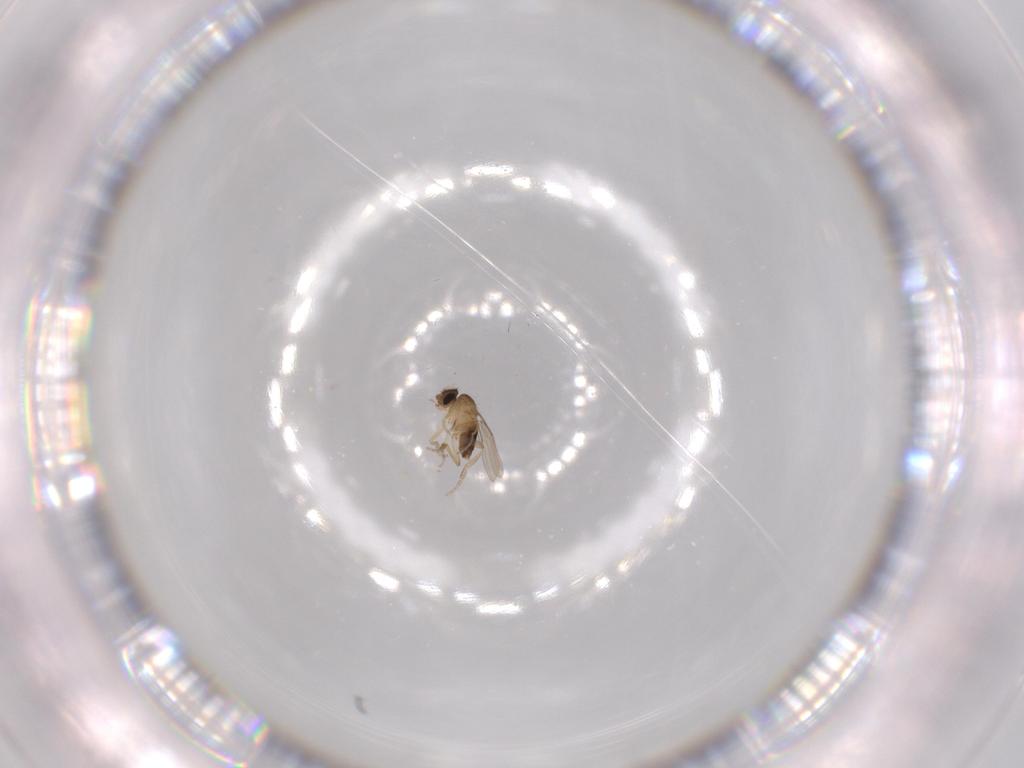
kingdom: Animalia
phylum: Arthropoda
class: Insecta
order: Diptera
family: Phoridae
